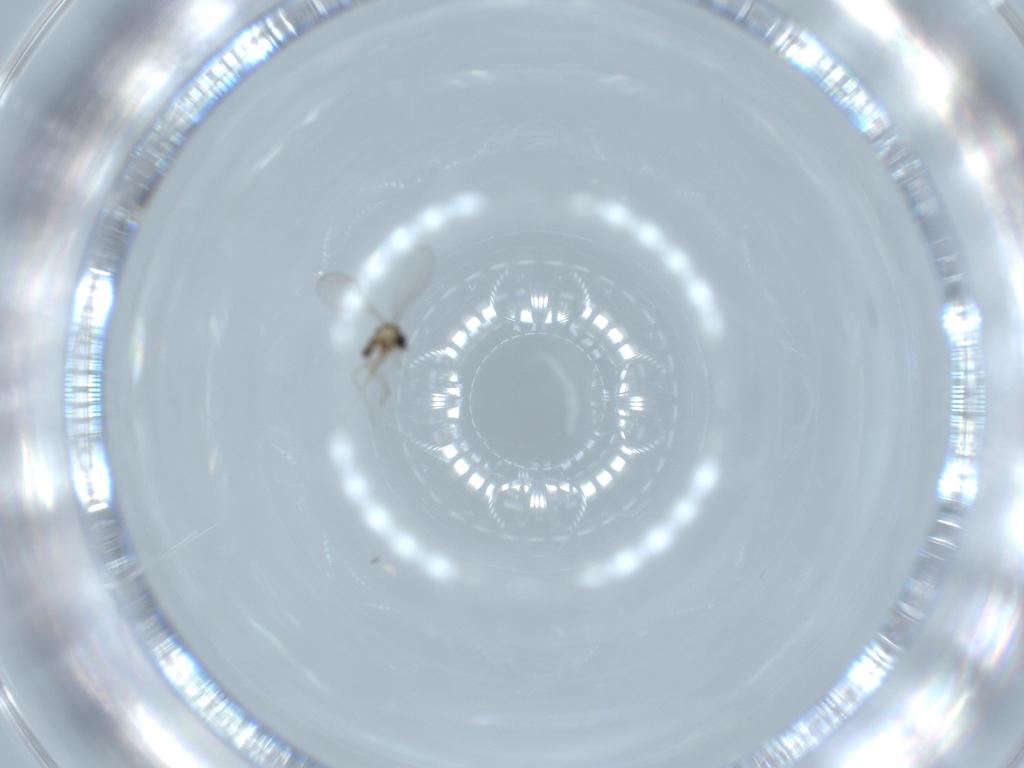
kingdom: Animalia
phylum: Arthropoda
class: Insecta
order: Diptera
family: Cecidomyiidae
